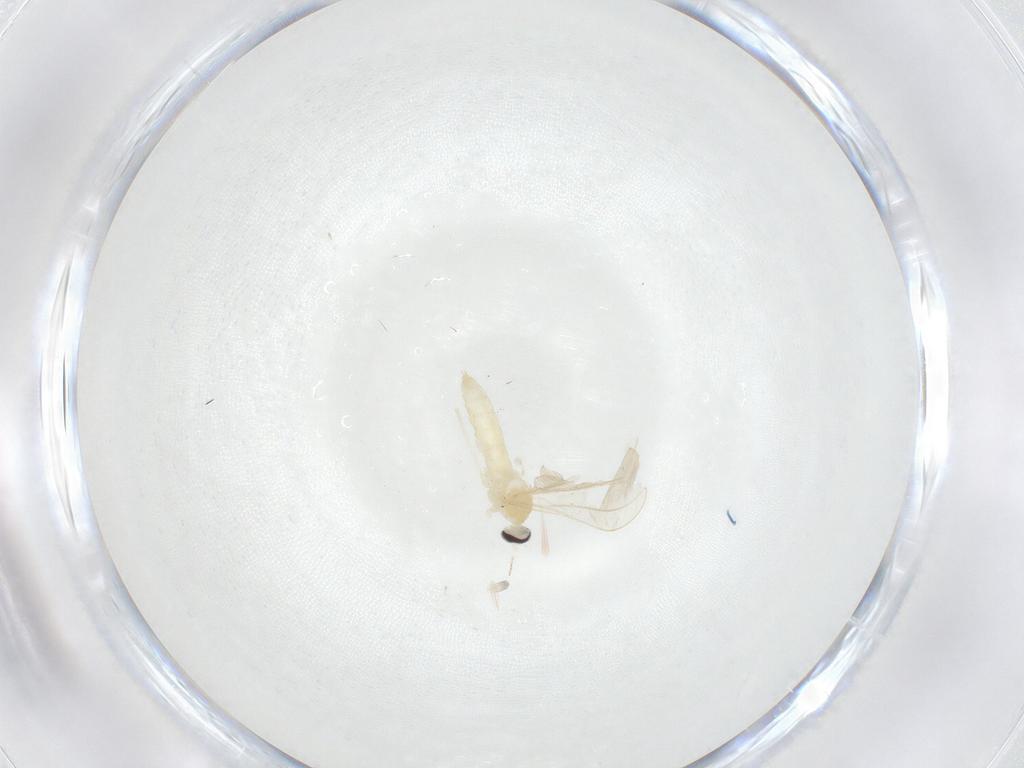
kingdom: Animalia
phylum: Arthropoda
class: Insecta
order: Diptera
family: Cecidomyiidae
